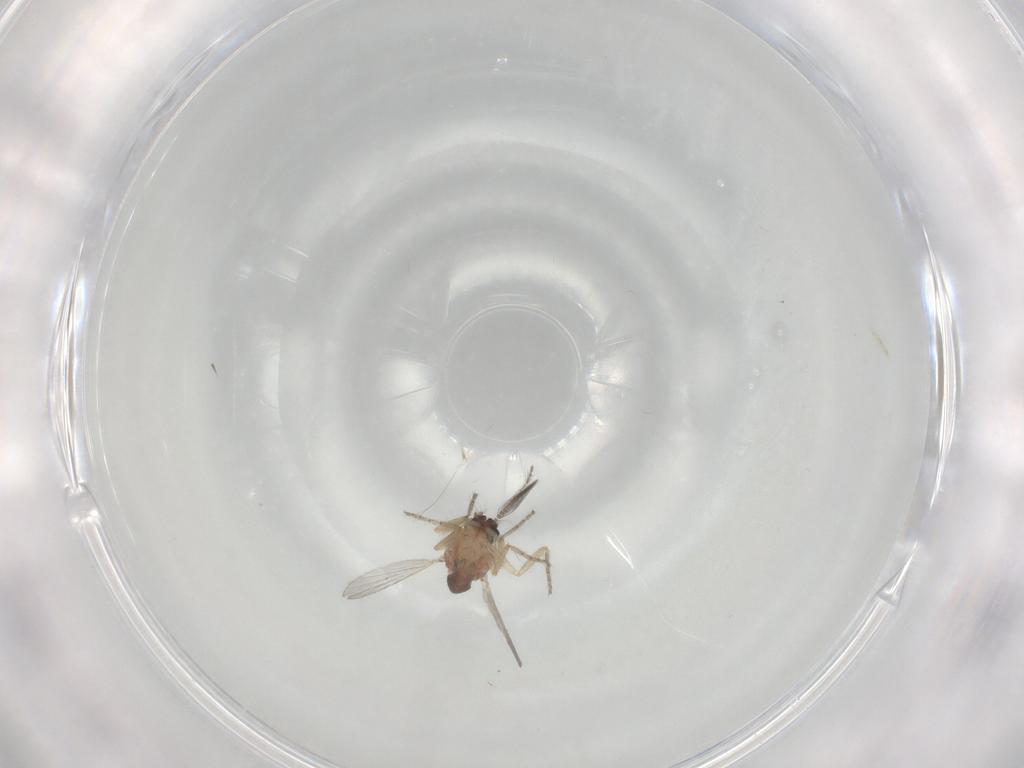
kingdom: Animalia
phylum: Arthropoda
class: Insecta
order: Diptera
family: Ceratopogonidae
